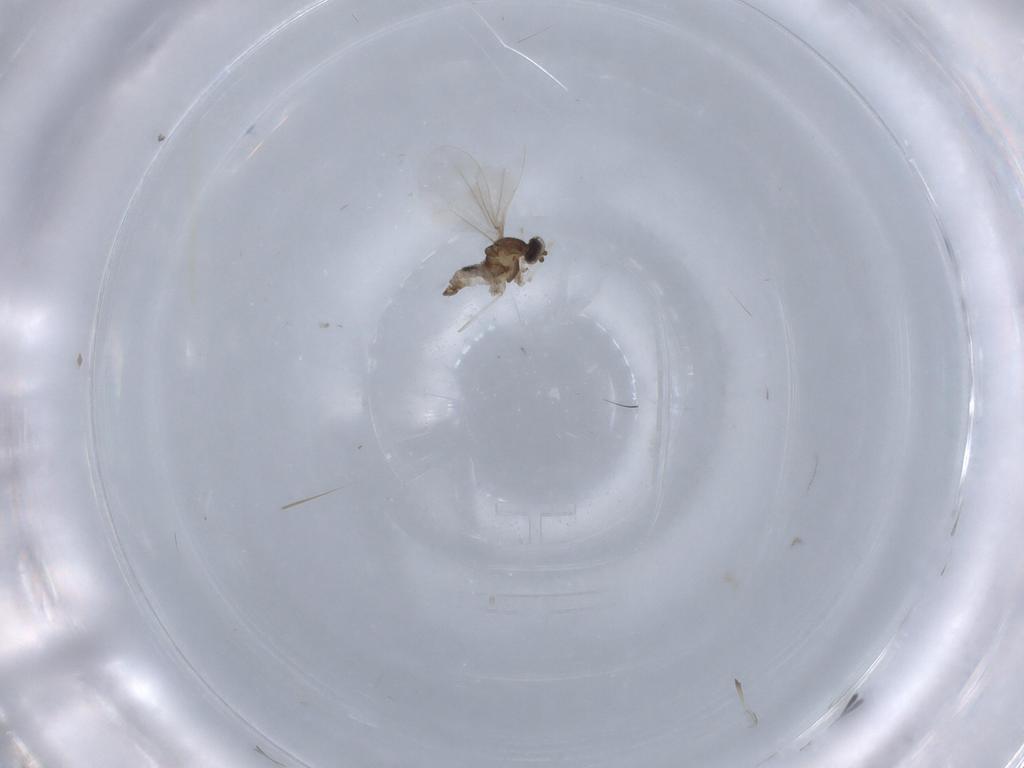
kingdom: Animalia
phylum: Arthropoda
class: Insecta
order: Diptera
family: Cecidomyiidae
